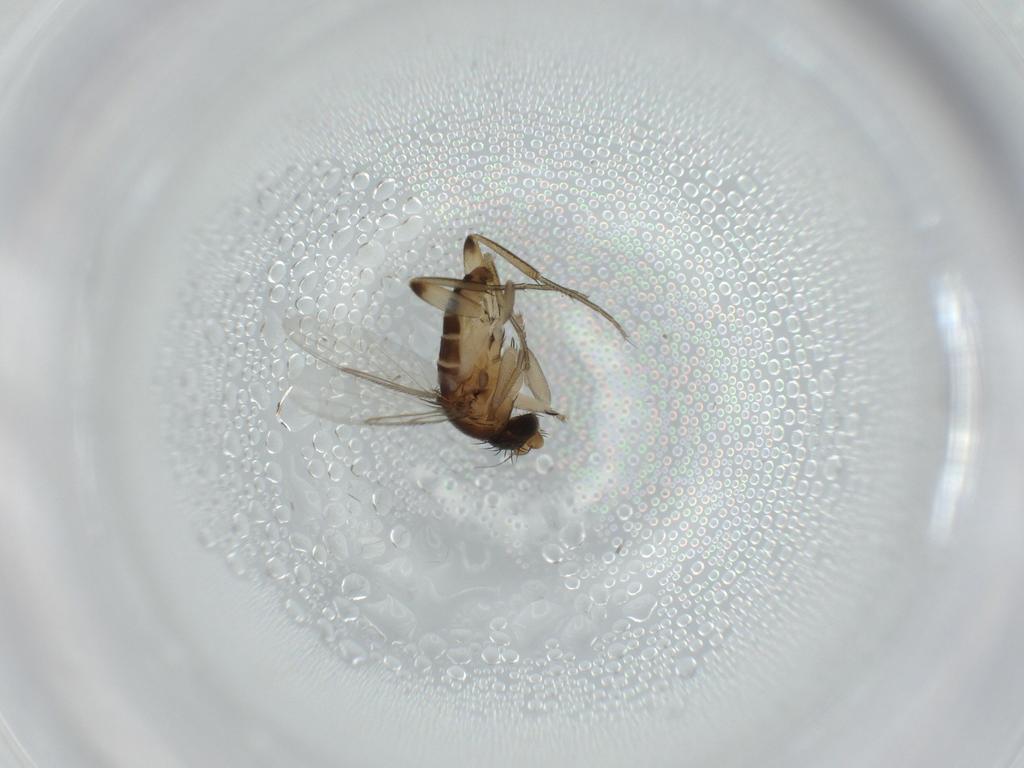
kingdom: Animalia
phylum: Arthropoda
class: Insecta
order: Diptera
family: Phoridae
